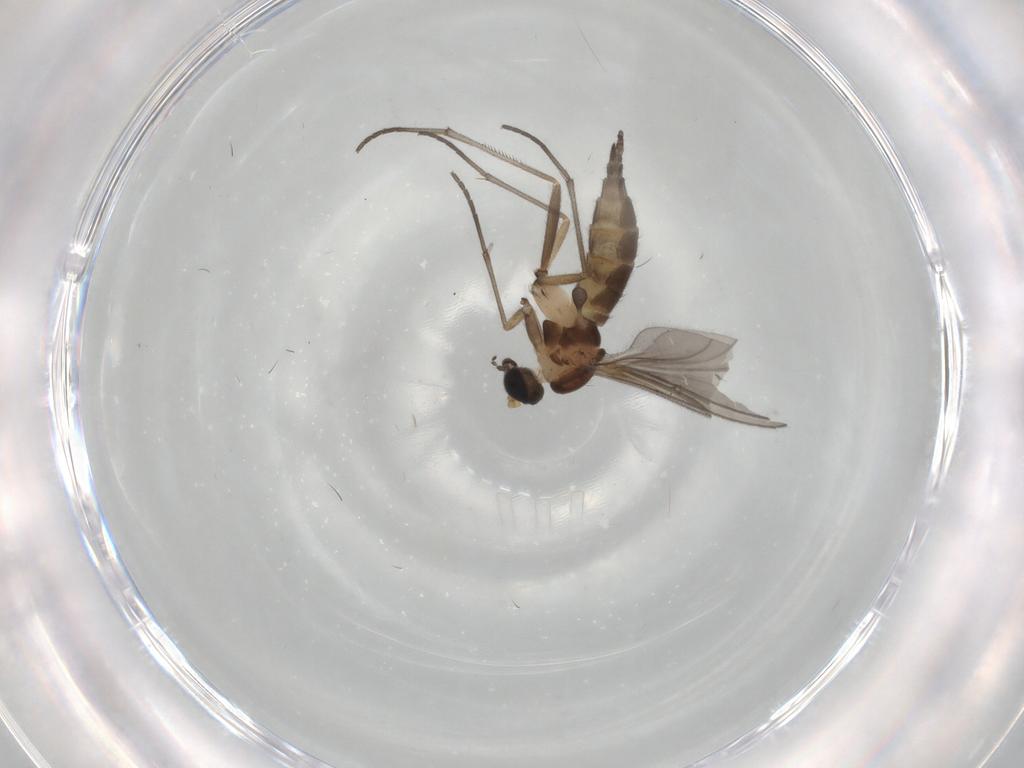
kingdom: Animalia
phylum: Arthropoda
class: Insecta
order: Diptera
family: Sciaridae
